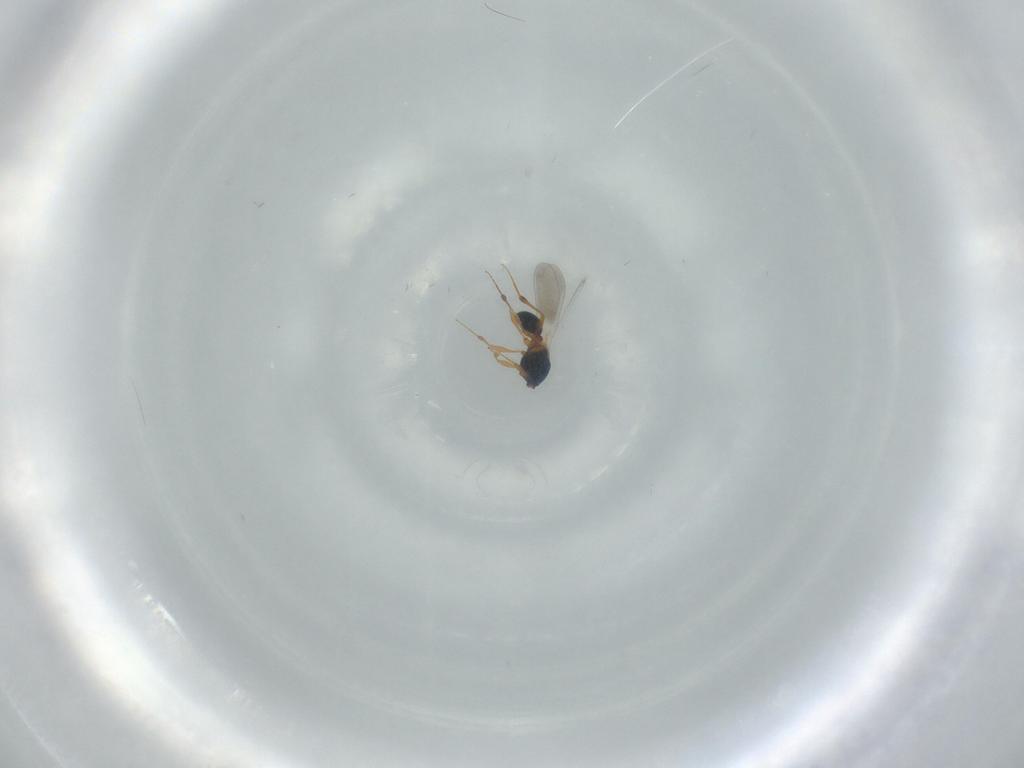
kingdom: Animalia
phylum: Arthropoda
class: Insecta
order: Hymenoptera
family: Platygastridae
